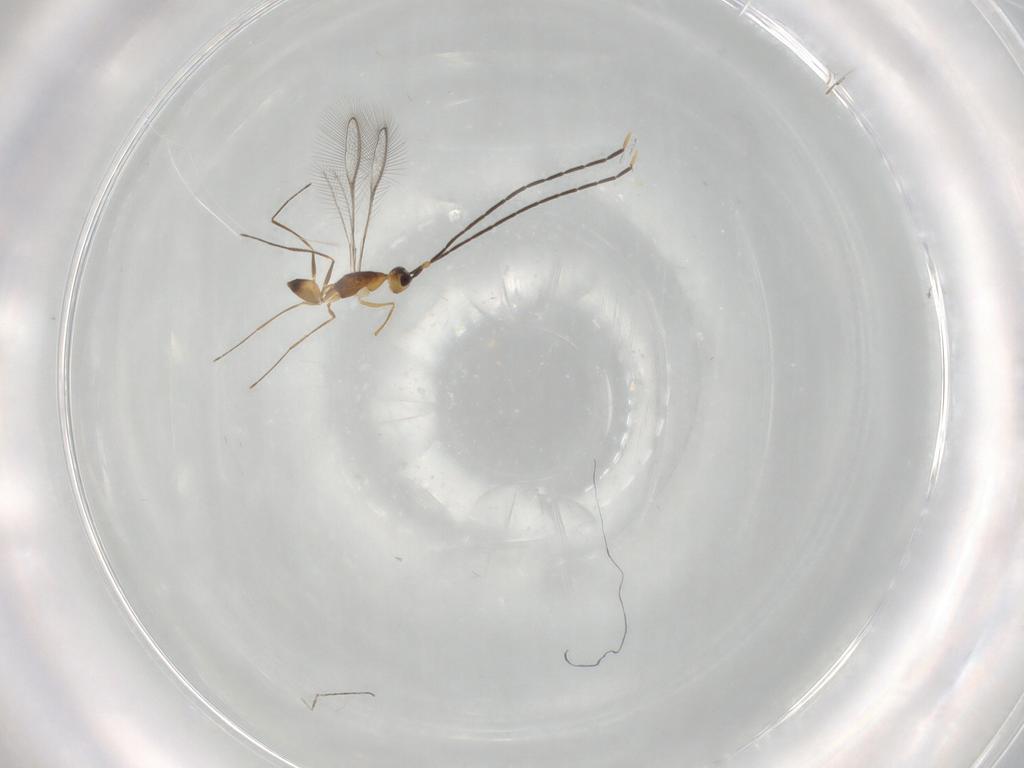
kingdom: Animalia
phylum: Arthropoda
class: Insecta
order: Hymenoptera
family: Mymaridae
